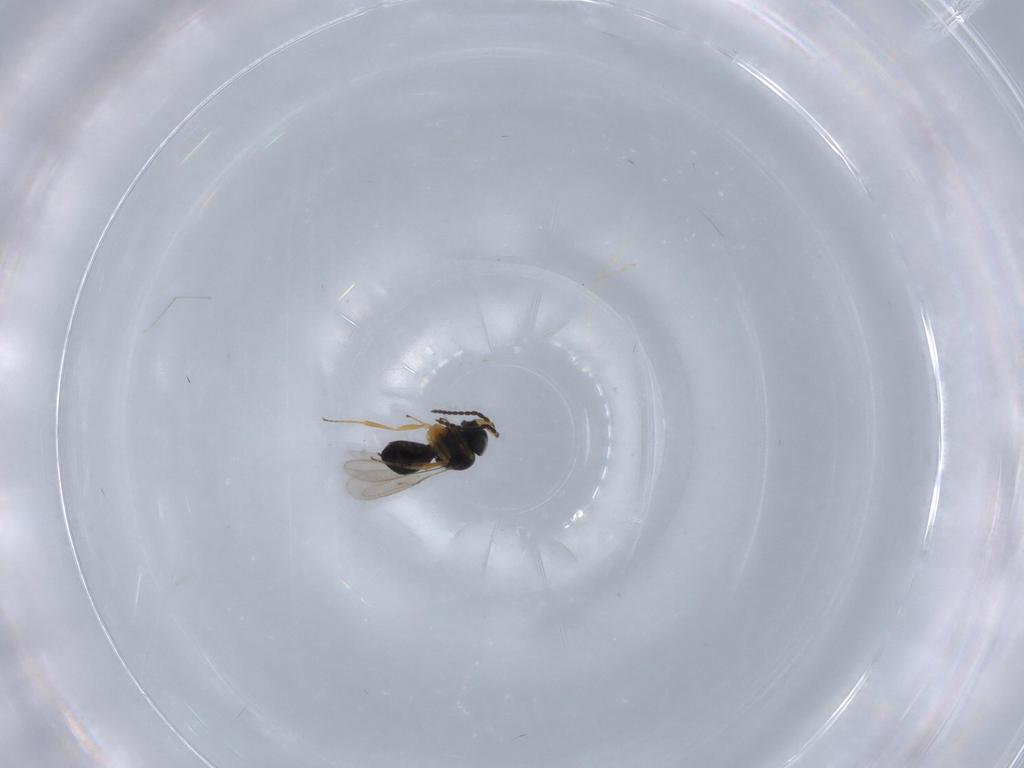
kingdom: Animalia
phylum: Arthropoda
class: Insecta
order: Hymenoptera
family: Scelionidae
